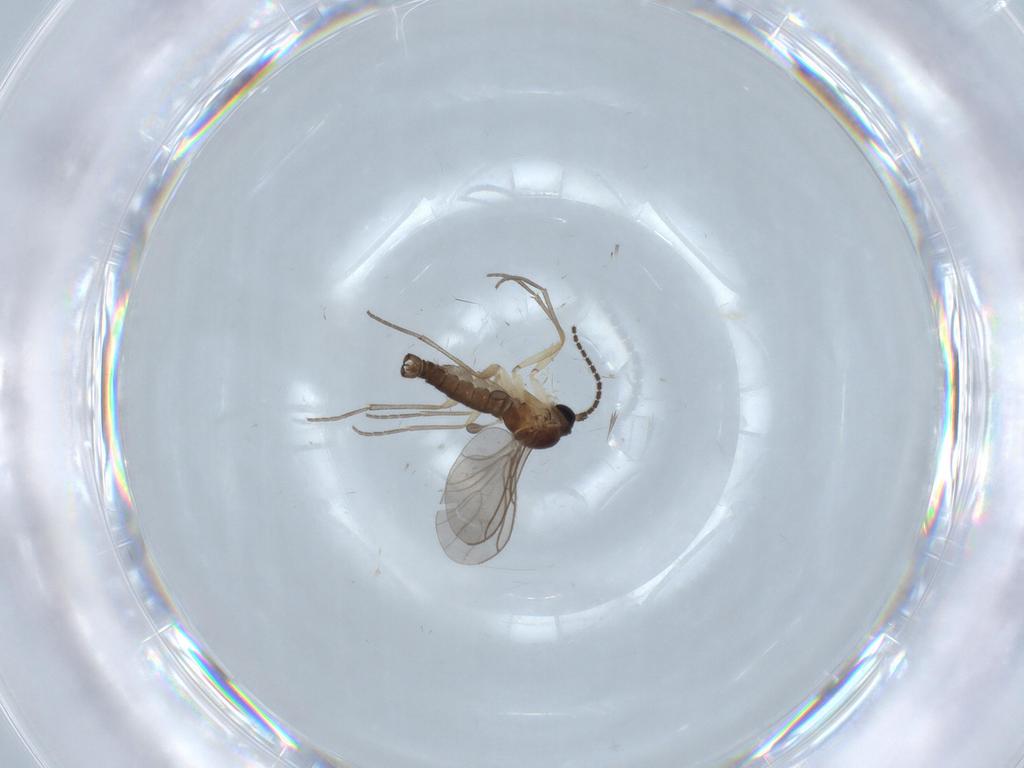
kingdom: Animalia
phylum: Arthropoda
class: Insecta
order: Diptera
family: Sciaridae
